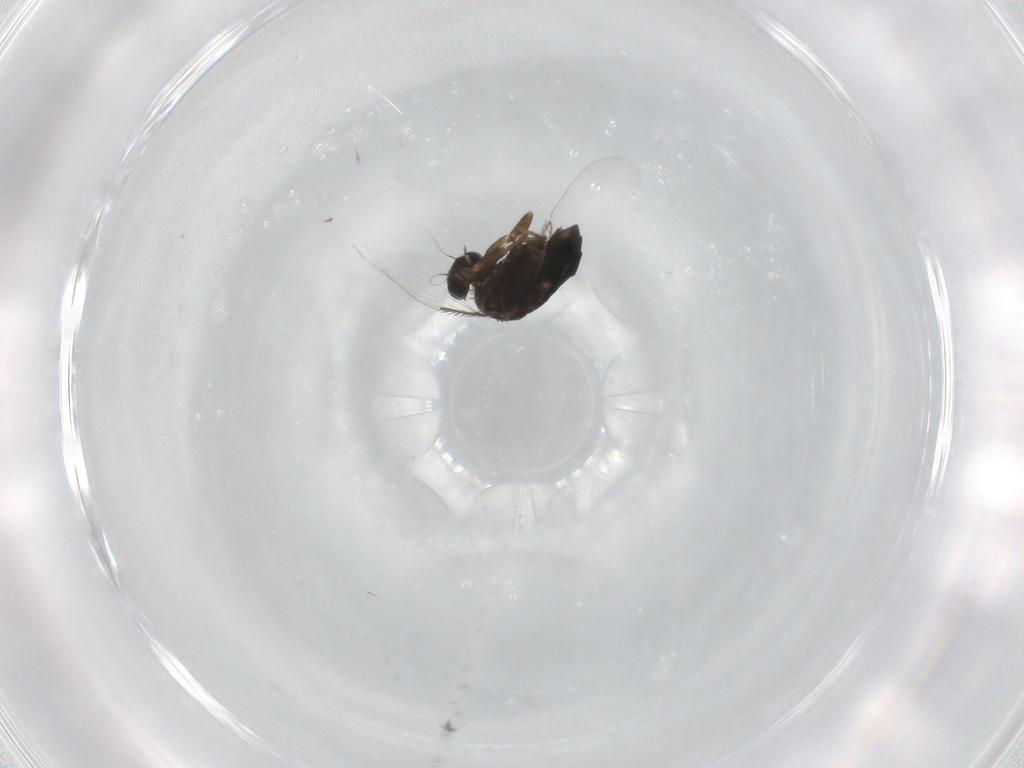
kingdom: Animalia
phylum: Arthropoda
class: Insecta
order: Diptera
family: Phoridae
